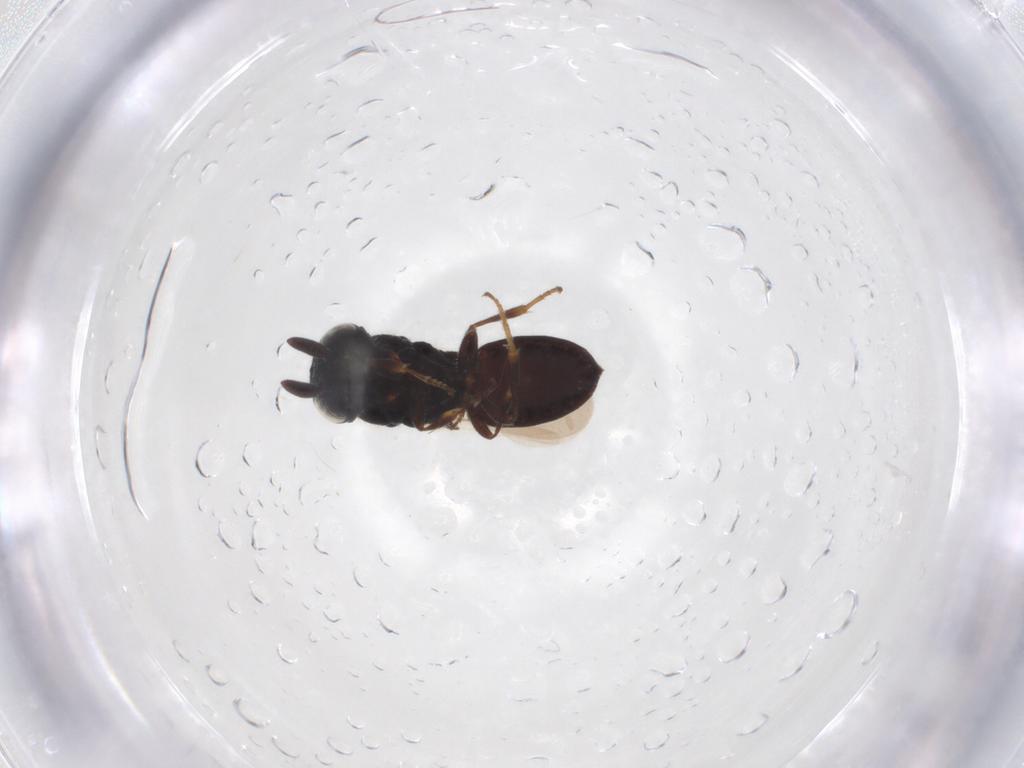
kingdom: Animalia
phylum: Arthropoda
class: Insecta
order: Hymenoptera
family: Scelionidae
